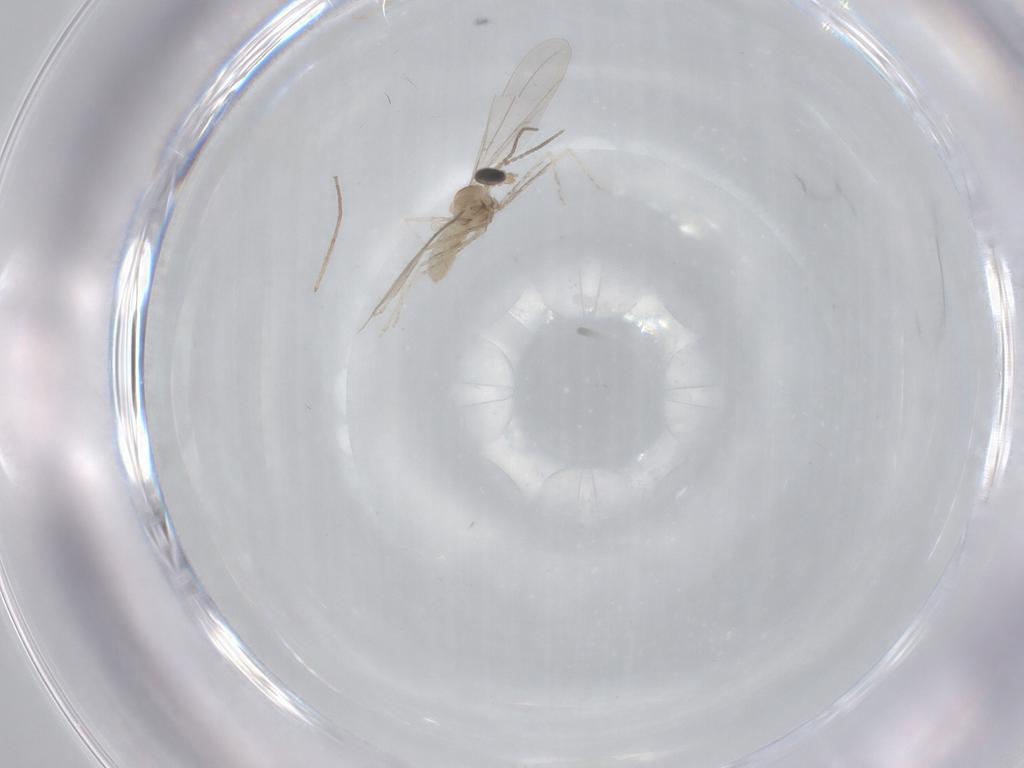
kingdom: Animalia
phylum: Arthropoda
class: Insecta
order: Diptera
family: Cecidomyiidae
